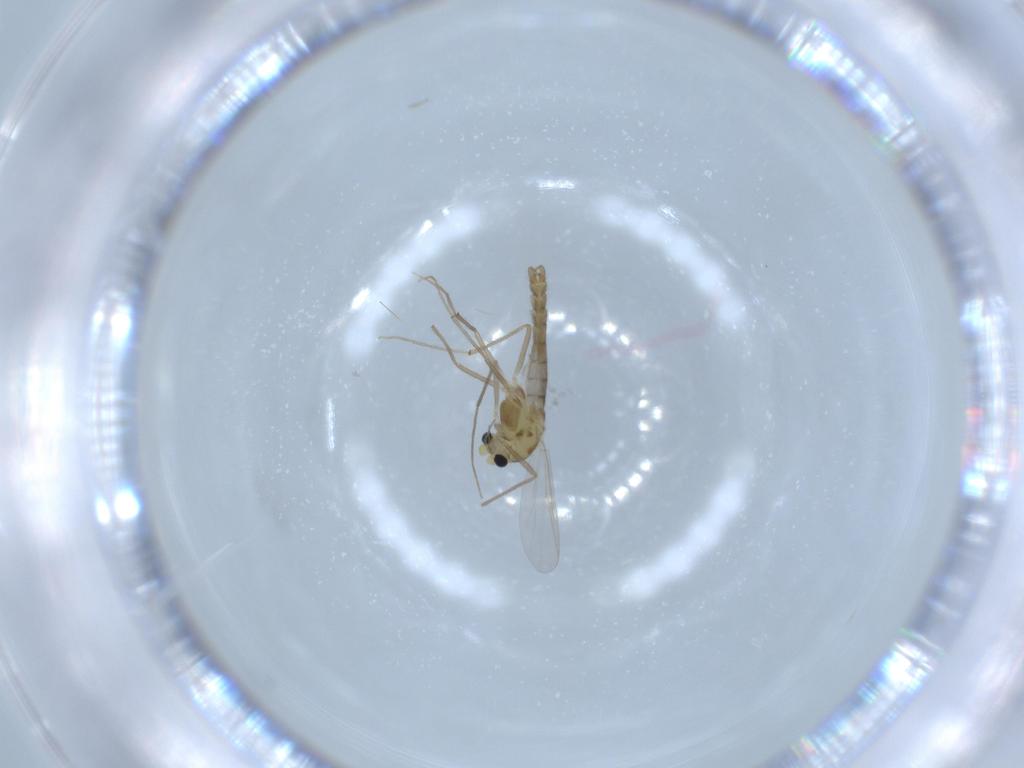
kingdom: Animalia
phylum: Arthropoda
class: Insecta
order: Diptera
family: Chironomidae
